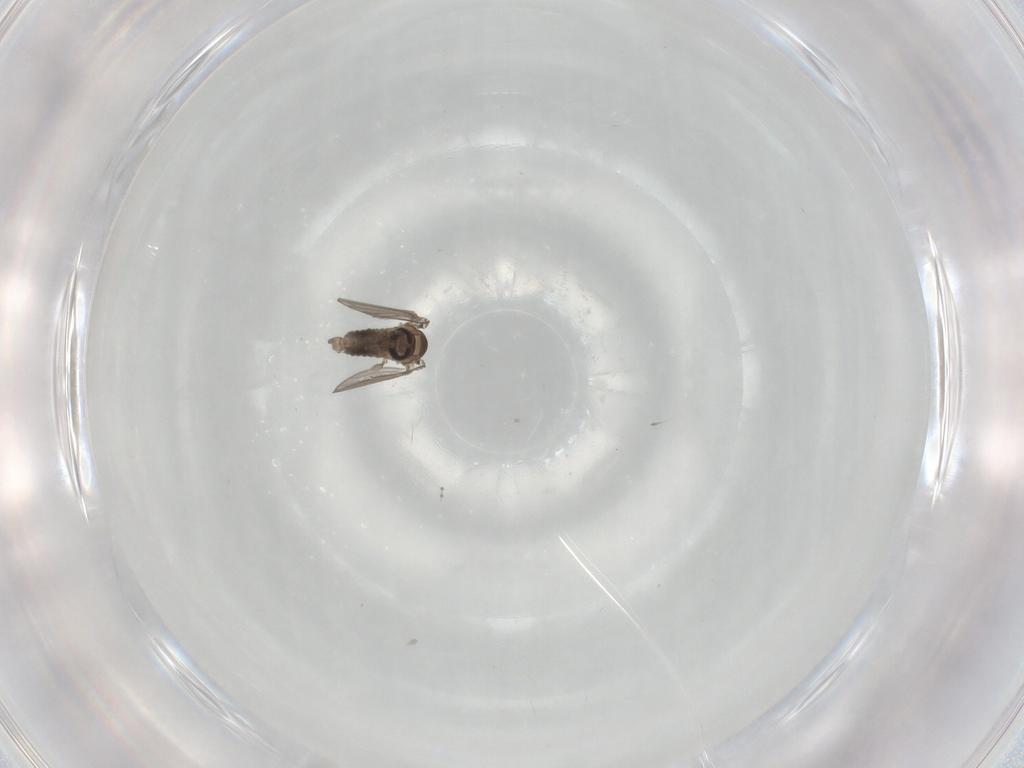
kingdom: Animalia
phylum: Arthropoda
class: Insecta
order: Diptera
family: Psychodidae
